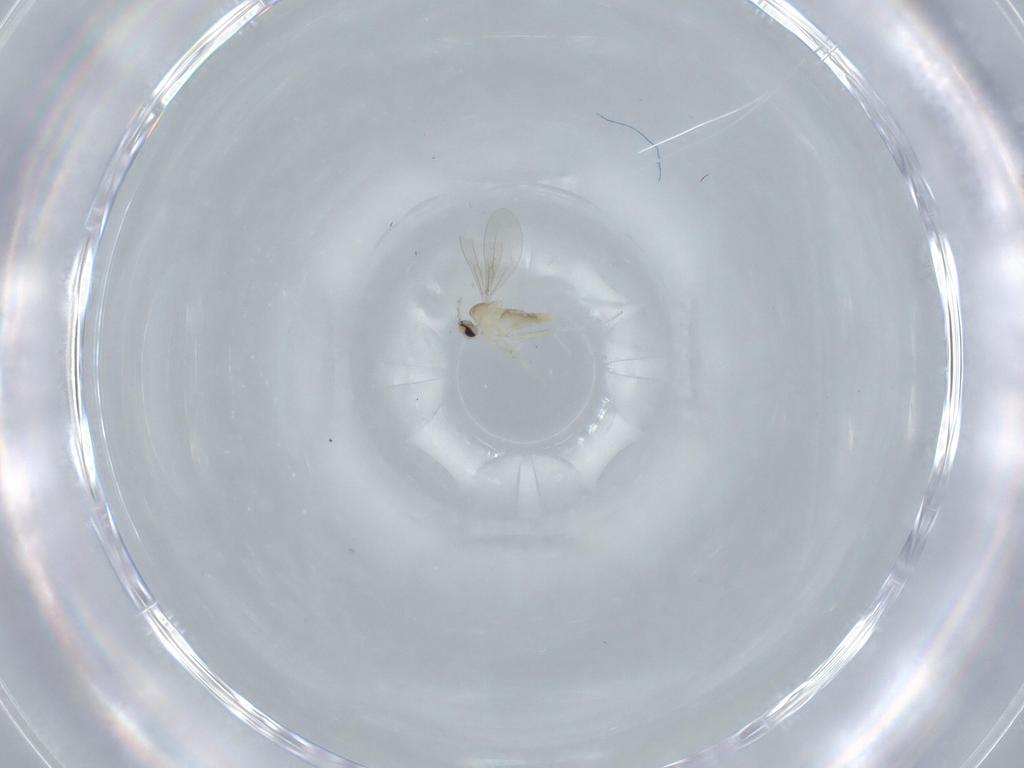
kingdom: Animalia
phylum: Arthropoda
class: Insecta
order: Diptera
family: Cecidomyiidae
